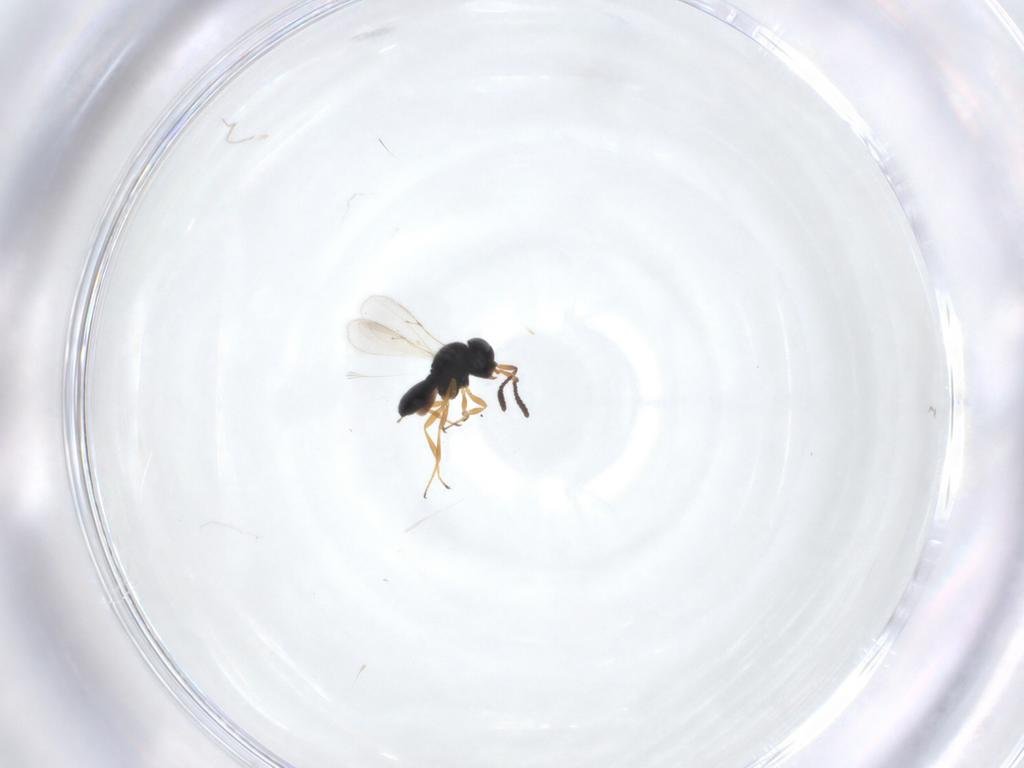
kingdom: Animalia
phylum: Arthropoda
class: Insecta
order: Hymenoptera
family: Scelionidae
